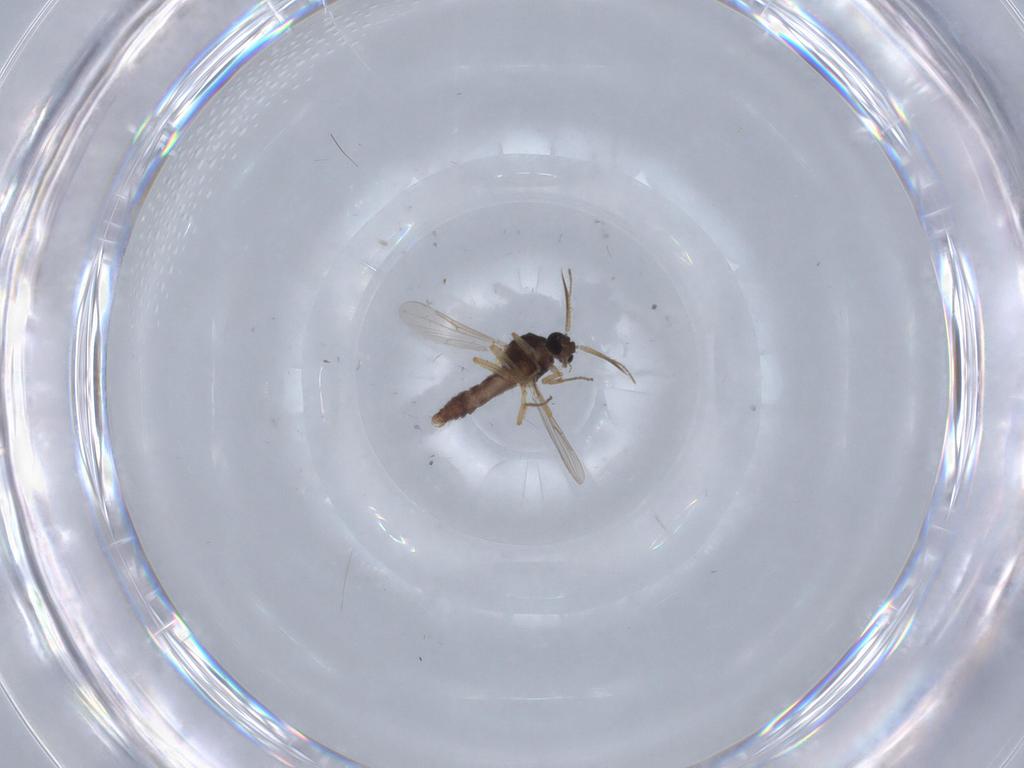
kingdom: Animalia
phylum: Arthropoda
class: Insecta
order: Diptera
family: Ceratopogonidae
